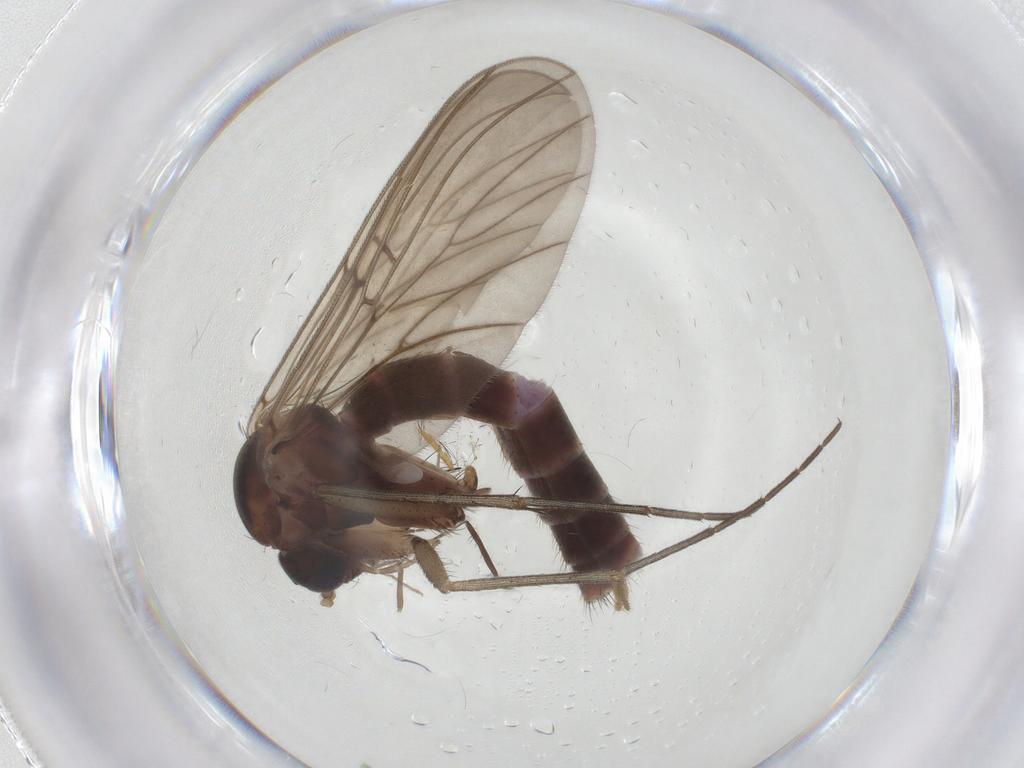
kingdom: Animalia
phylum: Arthropoda
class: Insecta
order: Diptera
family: Mycetophilidae
